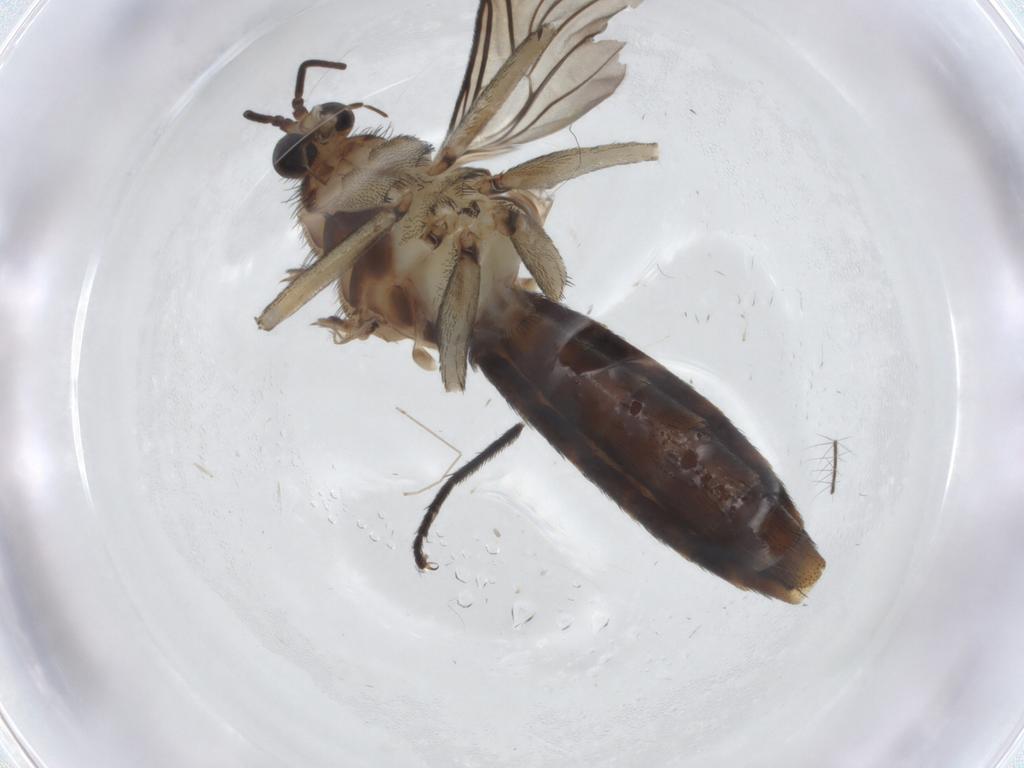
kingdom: Animalia
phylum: Arthropoda
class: Insecta
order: Diptera
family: Keroplatidae
